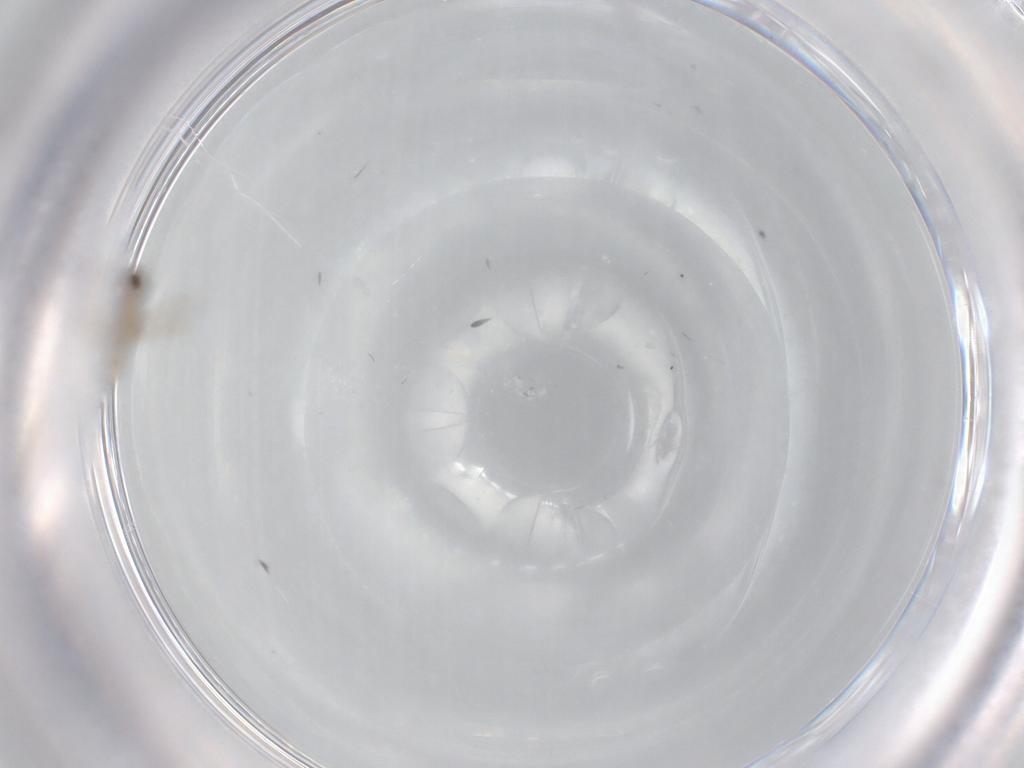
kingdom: Animalia
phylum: Arthropoda
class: Insecta
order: Diptera
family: Cecidomyiidae
